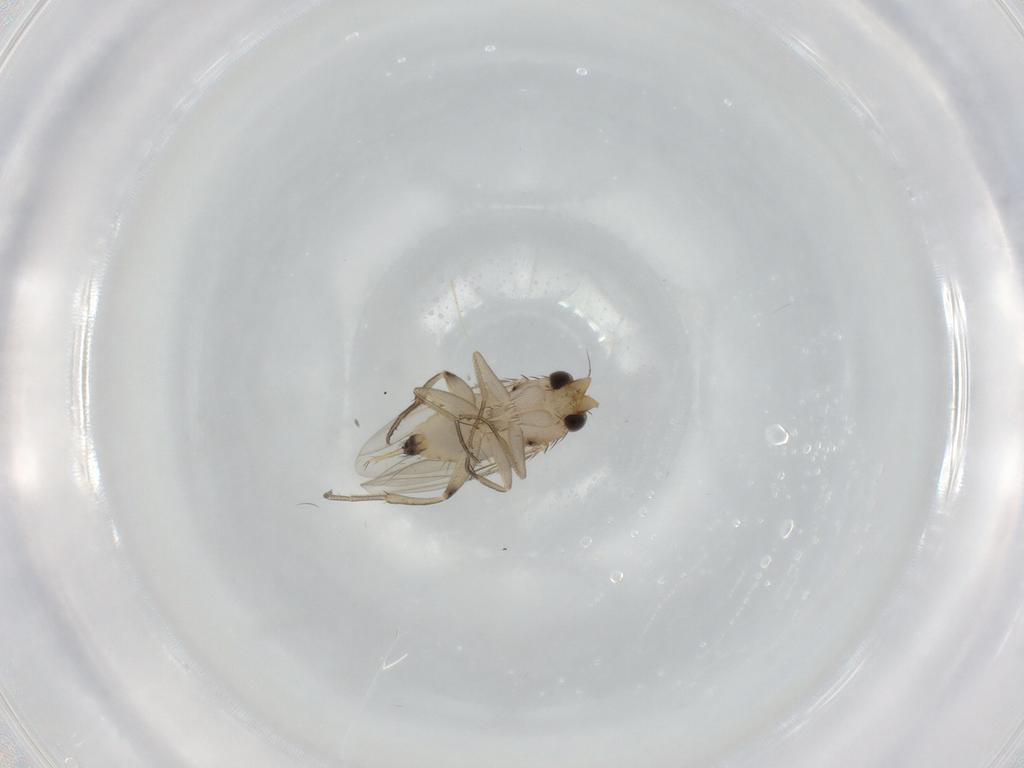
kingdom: Animalia
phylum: Arthropoda
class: Insecta
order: Diptera
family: Phoridae
